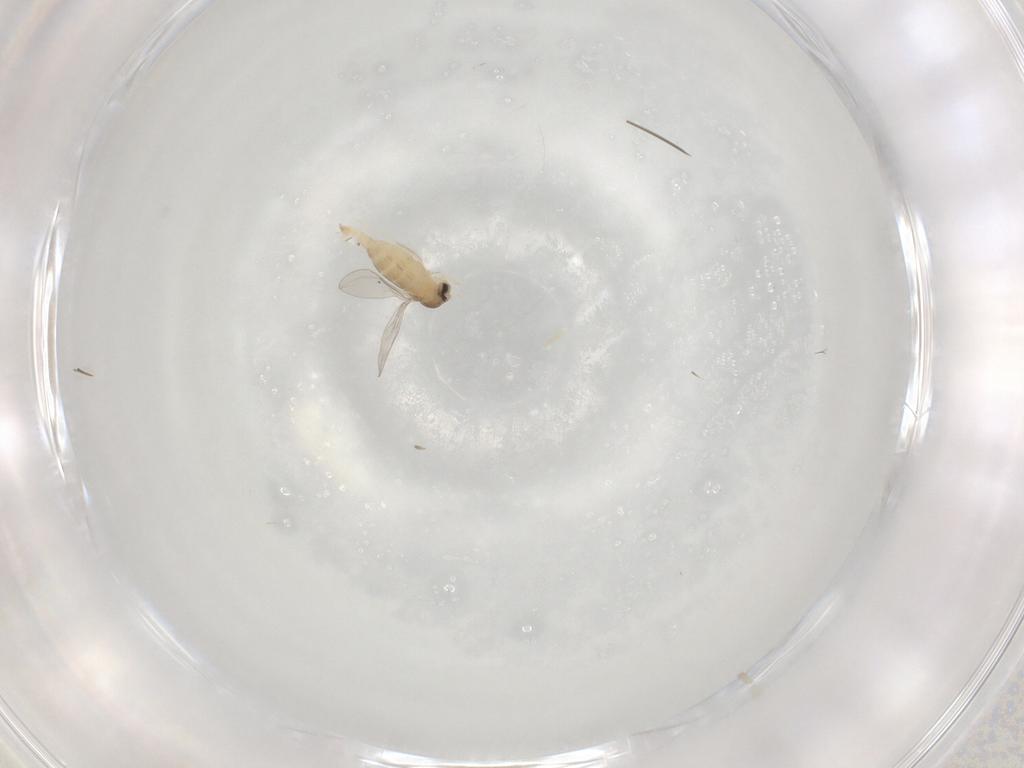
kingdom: Animalia
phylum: Arthropoda
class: Insecta
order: Diptera
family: Cecidomyiidae
